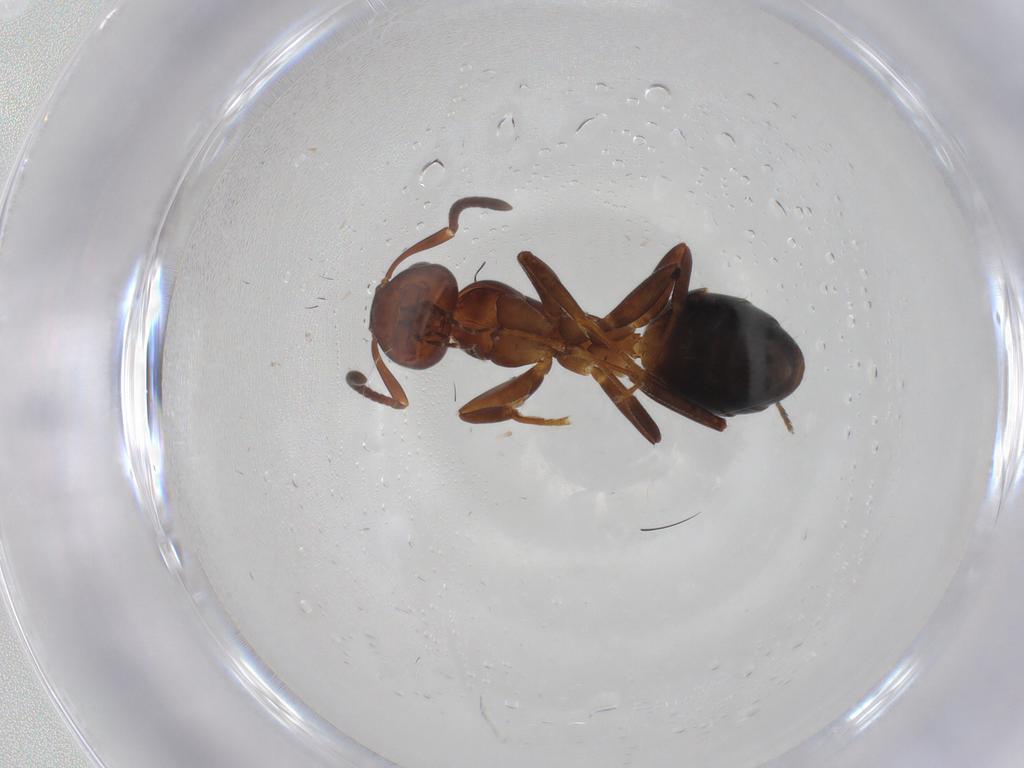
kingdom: Animalia
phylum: Arthropoda
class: Insecta
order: Hymenoptera
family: Formicidae
